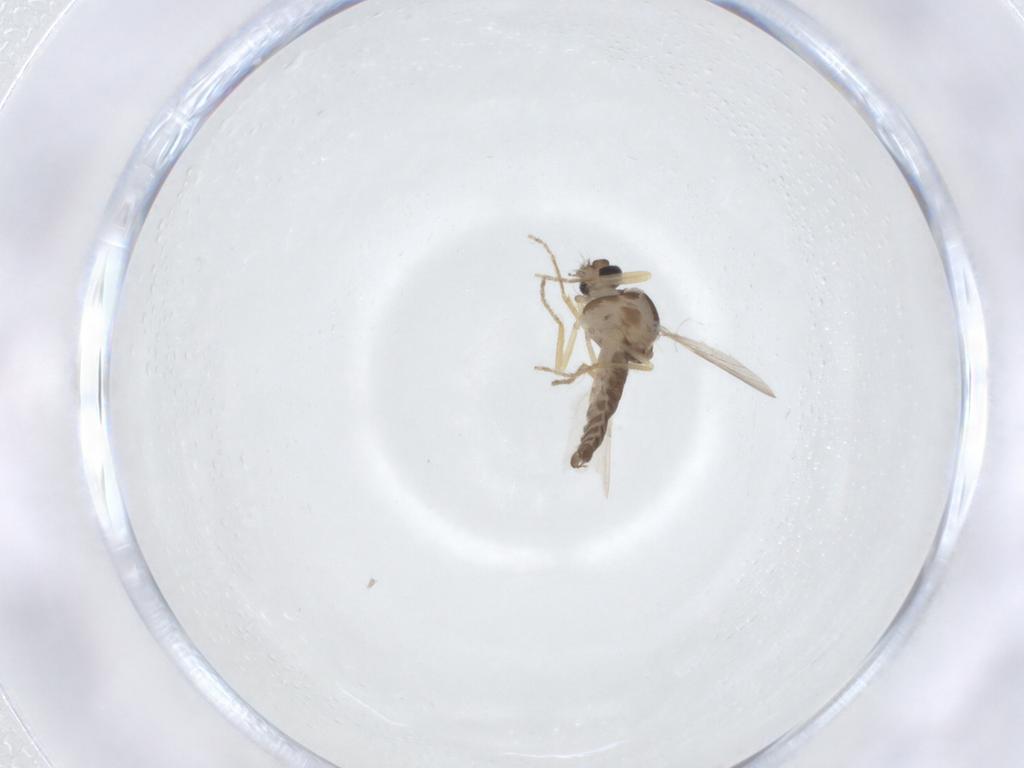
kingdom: Animalia
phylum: Arthropoda
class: Insecta
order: Diptera
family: Ceratopogonidae
